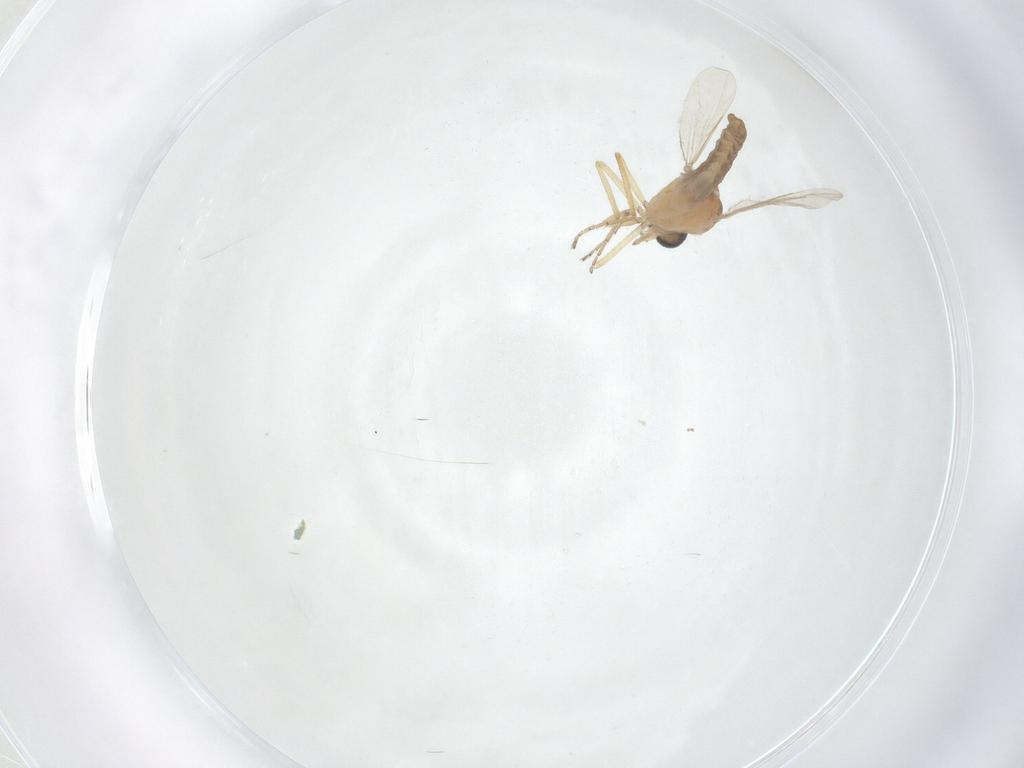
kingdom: Animalia
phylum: Arthropoda
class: Insecta
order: Diptera
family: Ceratopogonidae
